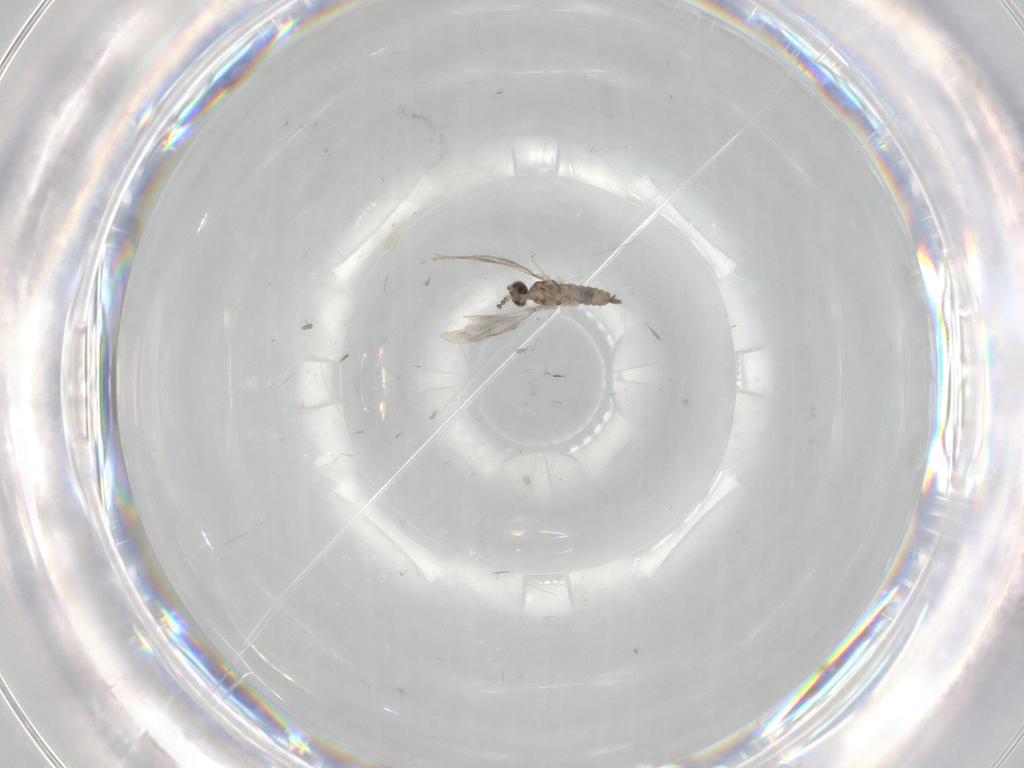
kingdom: Animalia
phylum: Arthropoda
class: Insecta
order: Diptera
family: Cecidomyiidae
